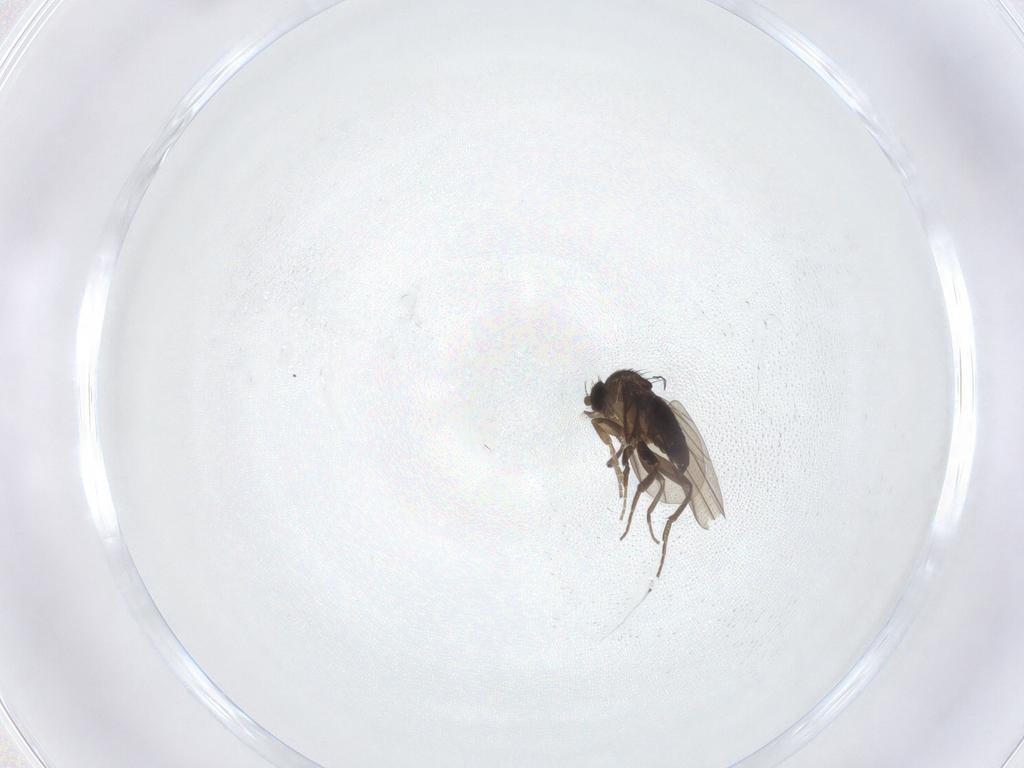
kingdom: Animalia
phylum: Arthropoda
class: Insecta
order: Diptera
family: Phoridae
